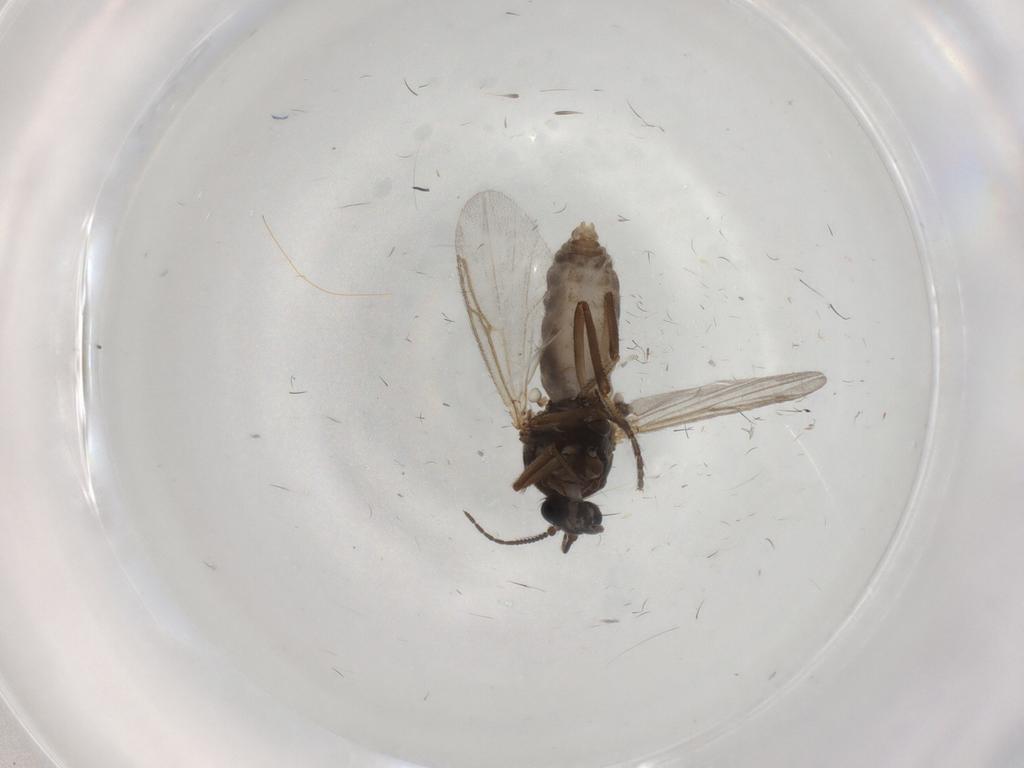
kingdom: Animalia
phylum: Arthropoda
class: Insecta
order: Diptera
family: Ceratopogonidae
